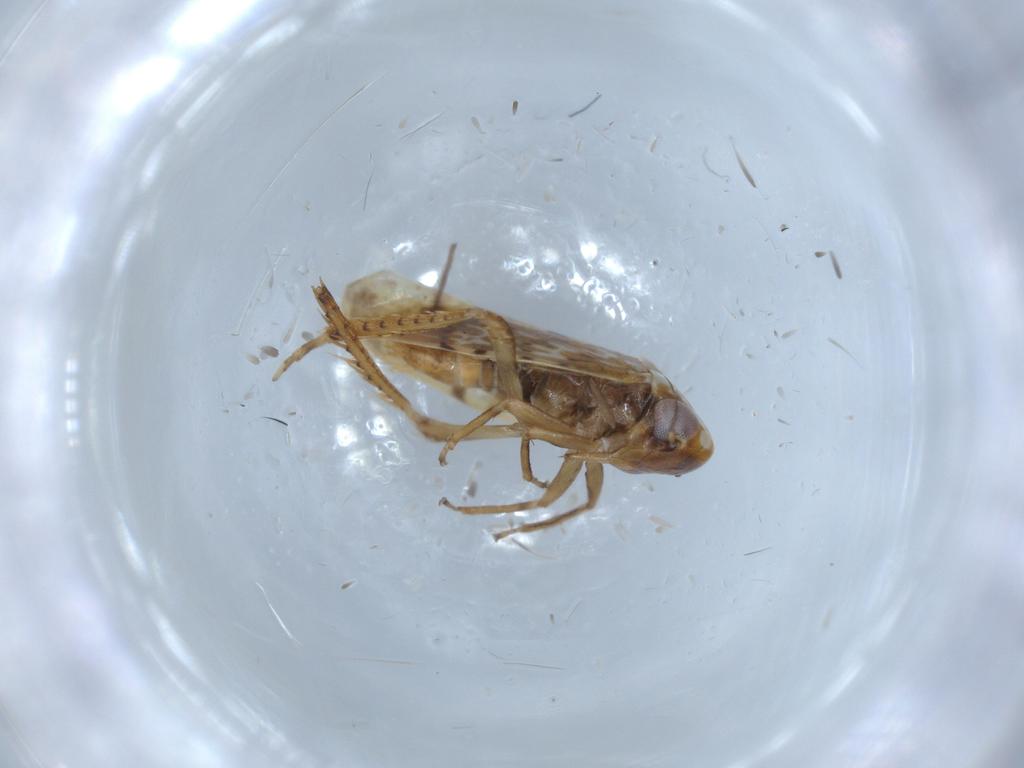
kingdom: Animalia
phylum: Arthropoda
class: Insecta
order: Hemiptera
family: Cicadellidae
